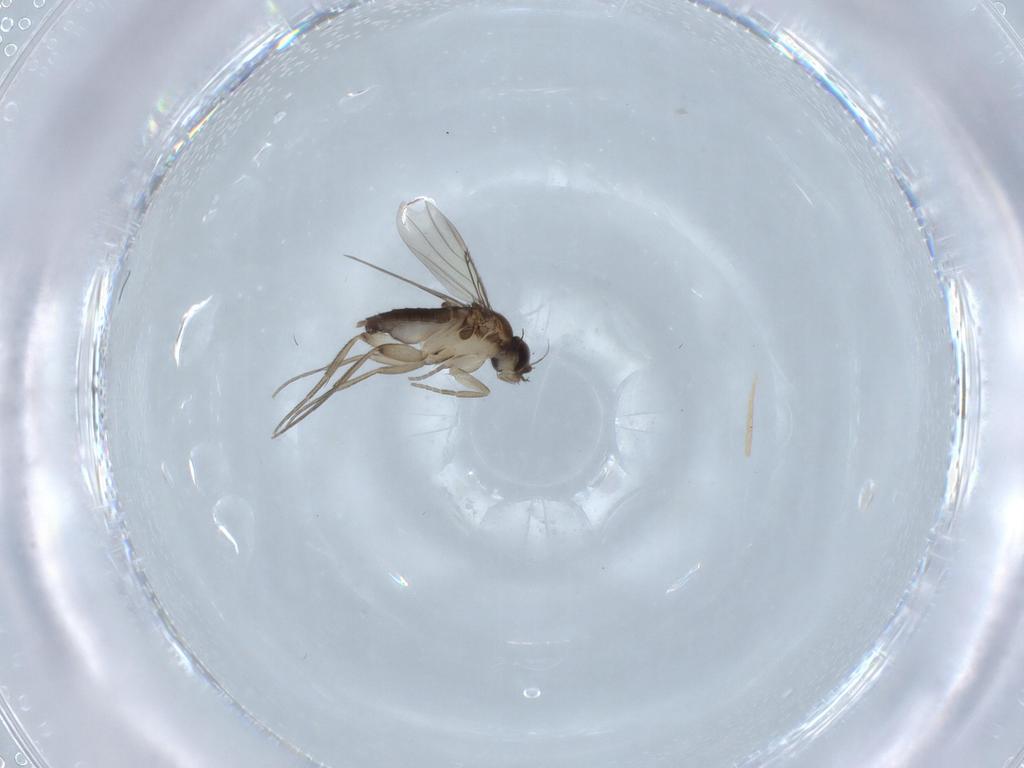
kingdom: Animalia
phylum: Arthropoda
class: Insecta
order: Diptera
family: Phoridae
